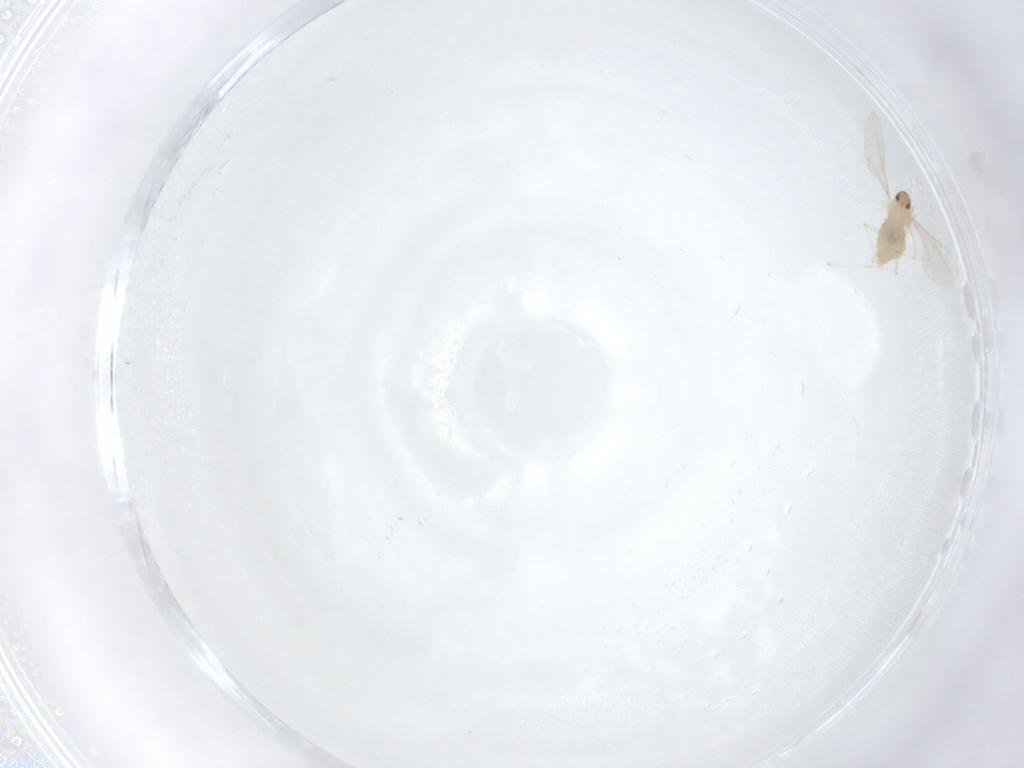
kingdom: Animalia
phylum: Arthropoda
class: Insecta
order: Diptera
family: Cecidomyiidae
